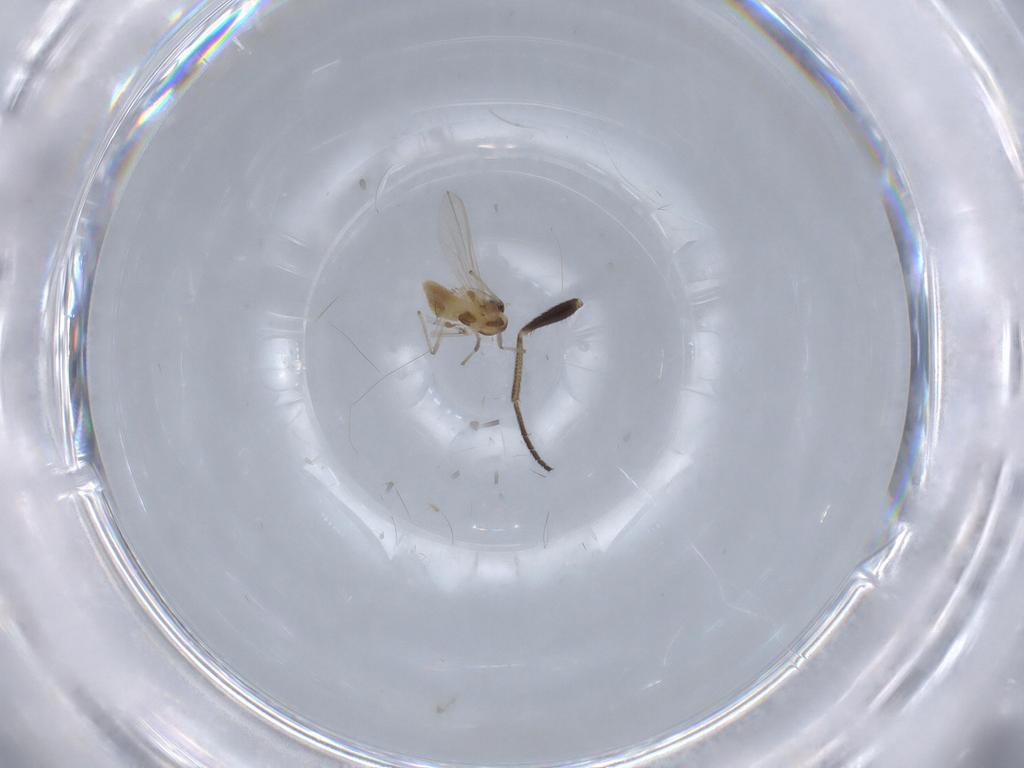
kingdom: Animalia
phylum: Arthropoda
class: Insecta
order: Diptera
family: Chironomidae
